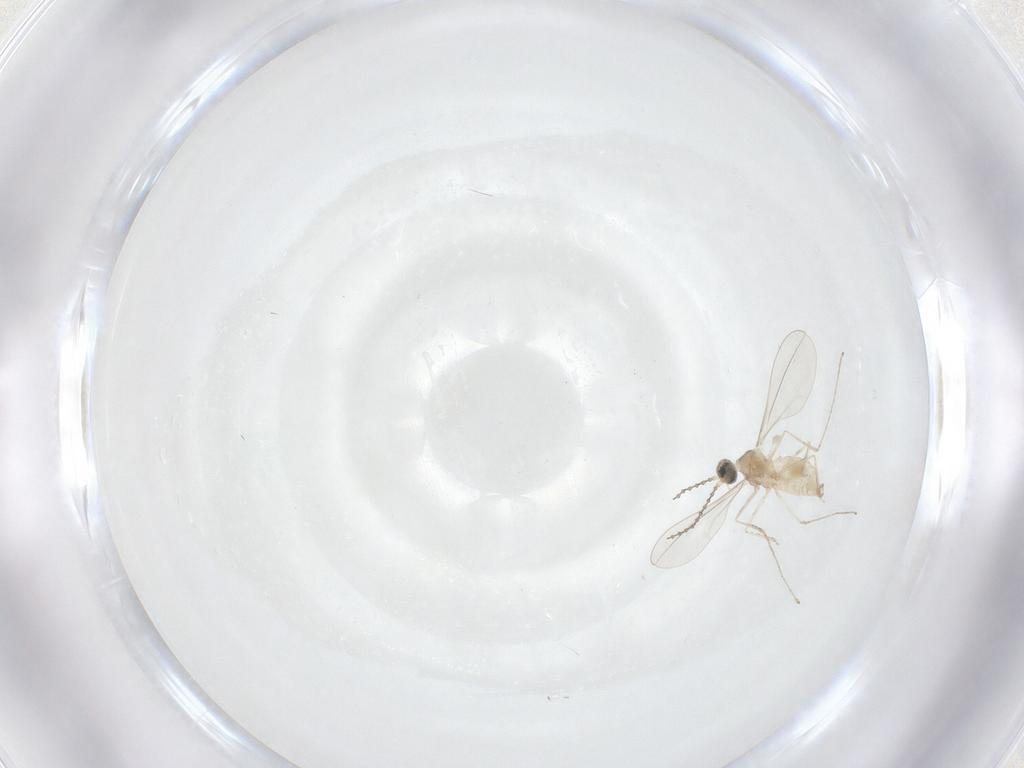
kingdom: Animalia
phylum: Arthropoda
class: Insecta
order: Diptera
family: Cecidomyiidae
